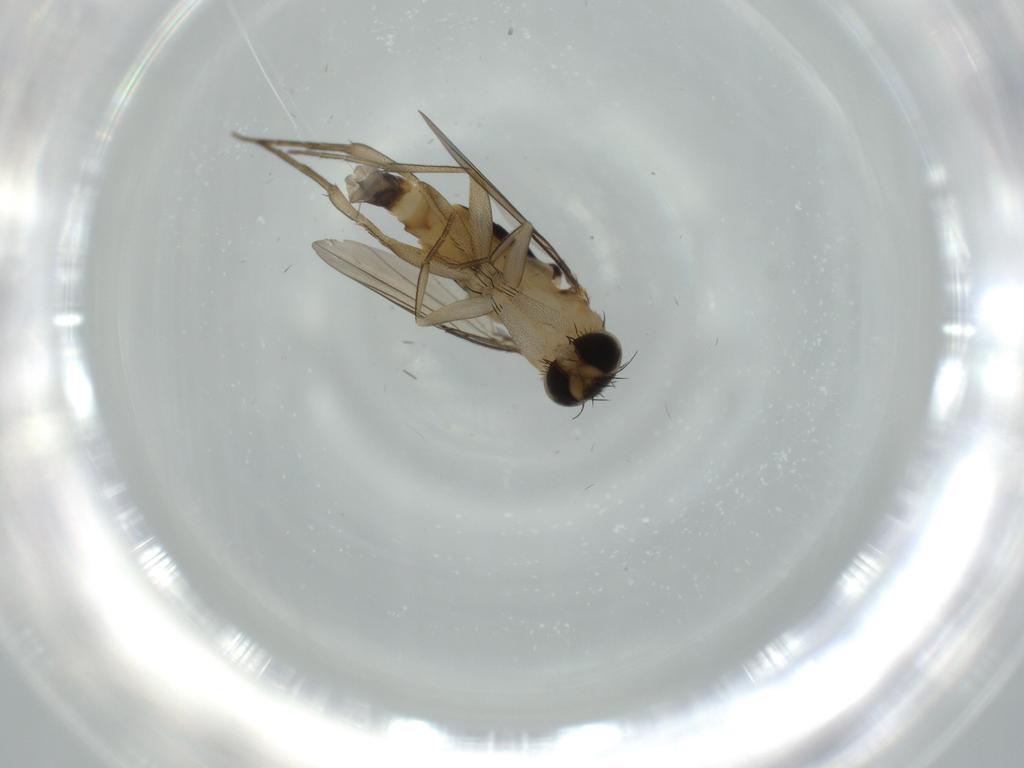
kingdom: Animalia
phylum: Arthropoda
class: Insecta
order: Diptera
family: Phoridae
